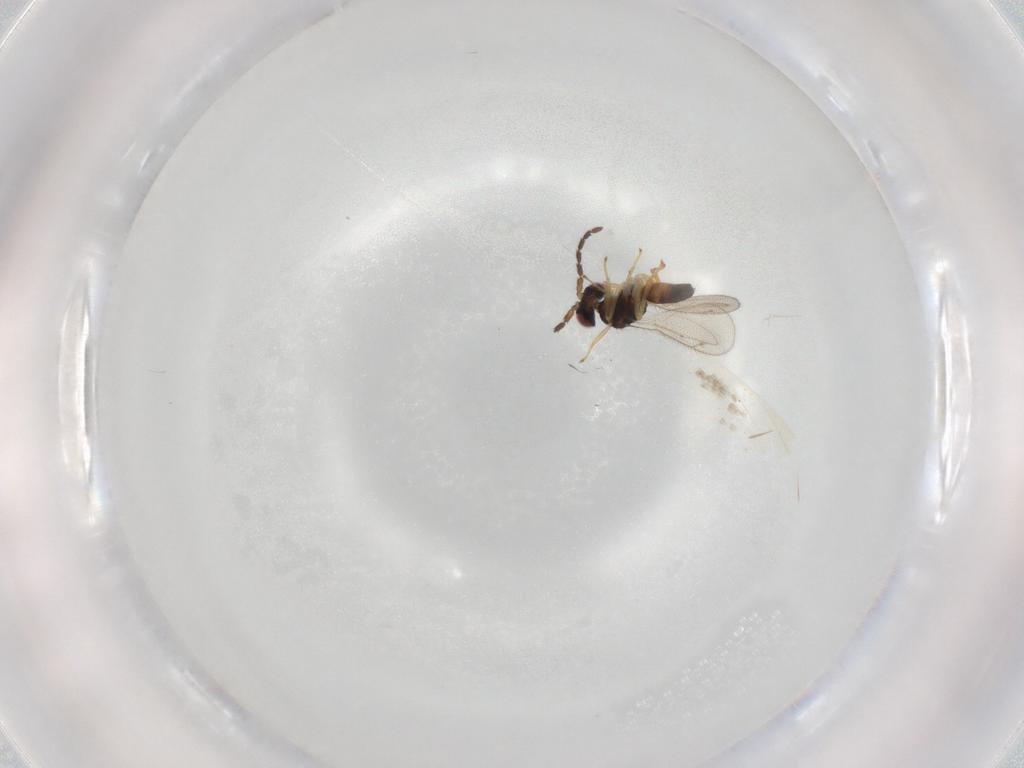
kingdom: Animalia
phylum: Arthropoda
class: Insecta
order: Hymenoptera
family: Eulophidae
